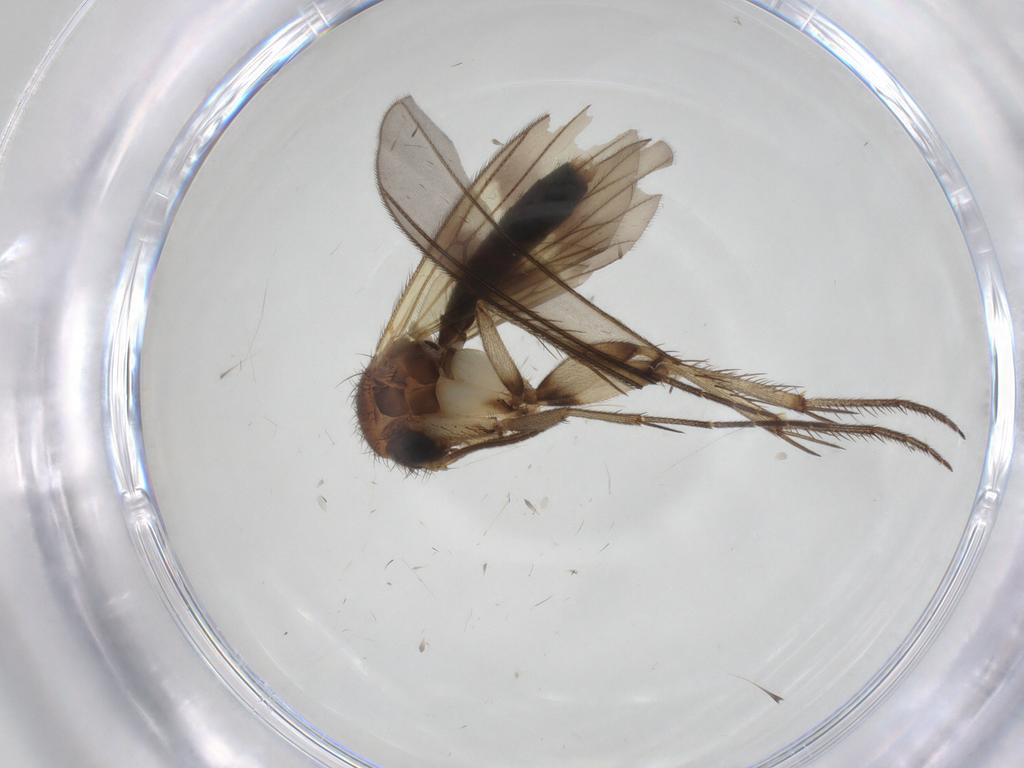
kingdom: Animalia
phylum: Arthropoda
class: Insecta
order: Diptera
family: Mycetophilidae
